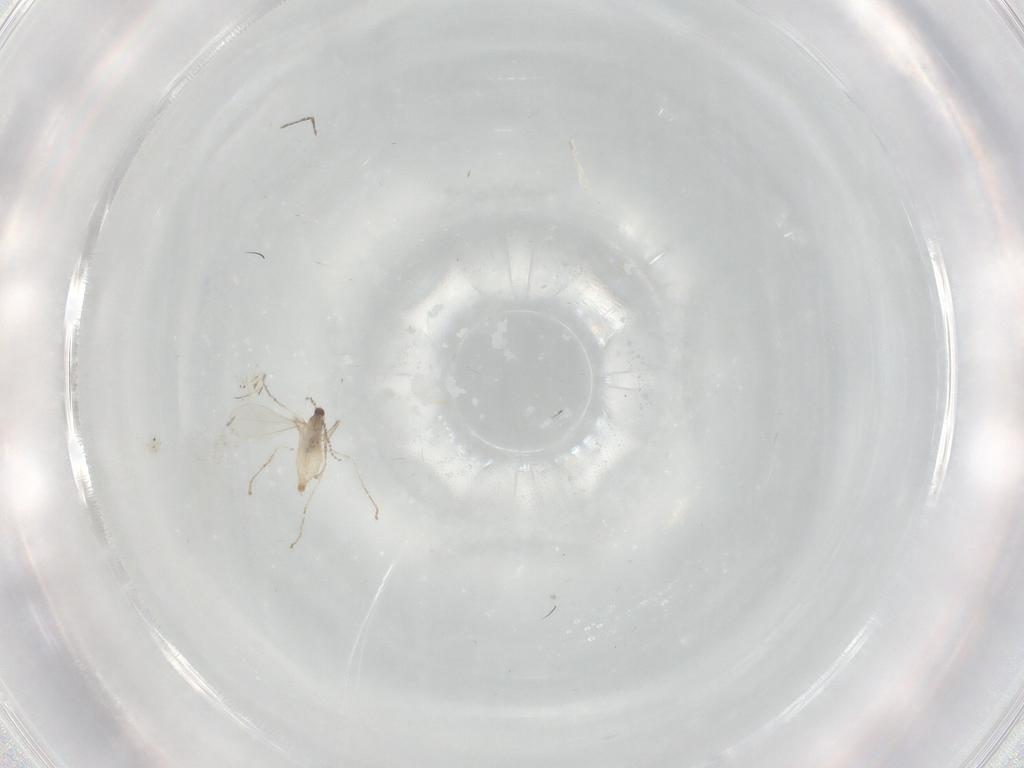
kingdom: Animalia
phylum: Arthropoda
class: Insecta
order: Diptera
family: Cecidomyiidae
